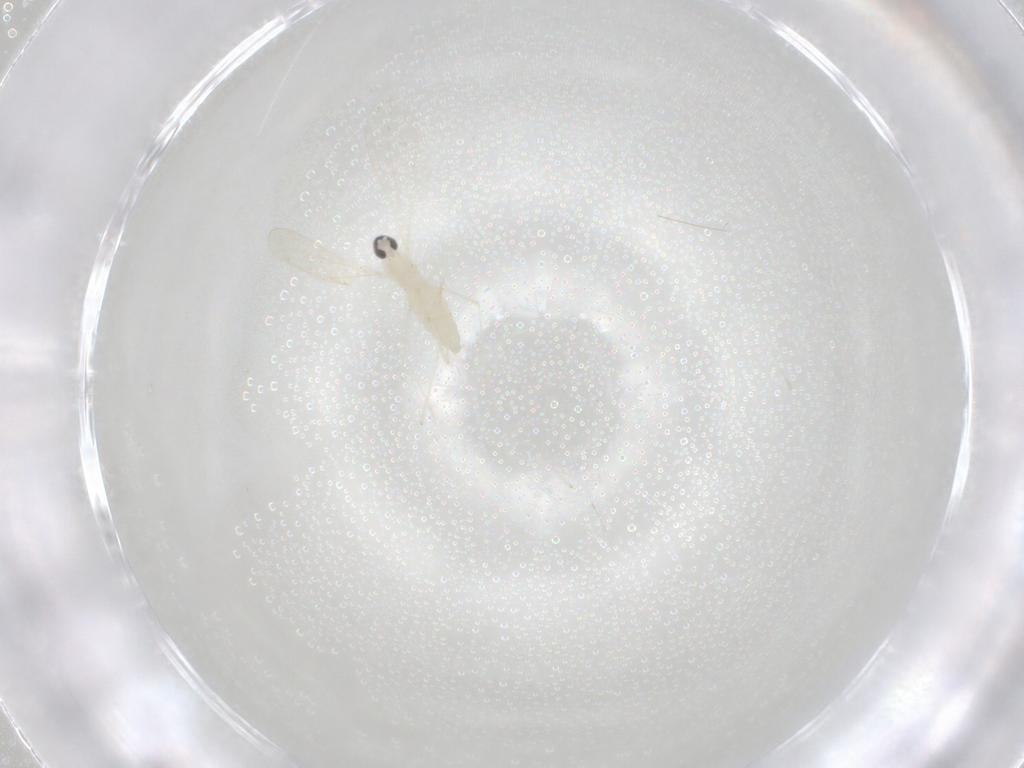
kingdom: Animalia
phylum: Arthropoda
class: Insecta
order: Diptera
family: Cecidomyiidae
